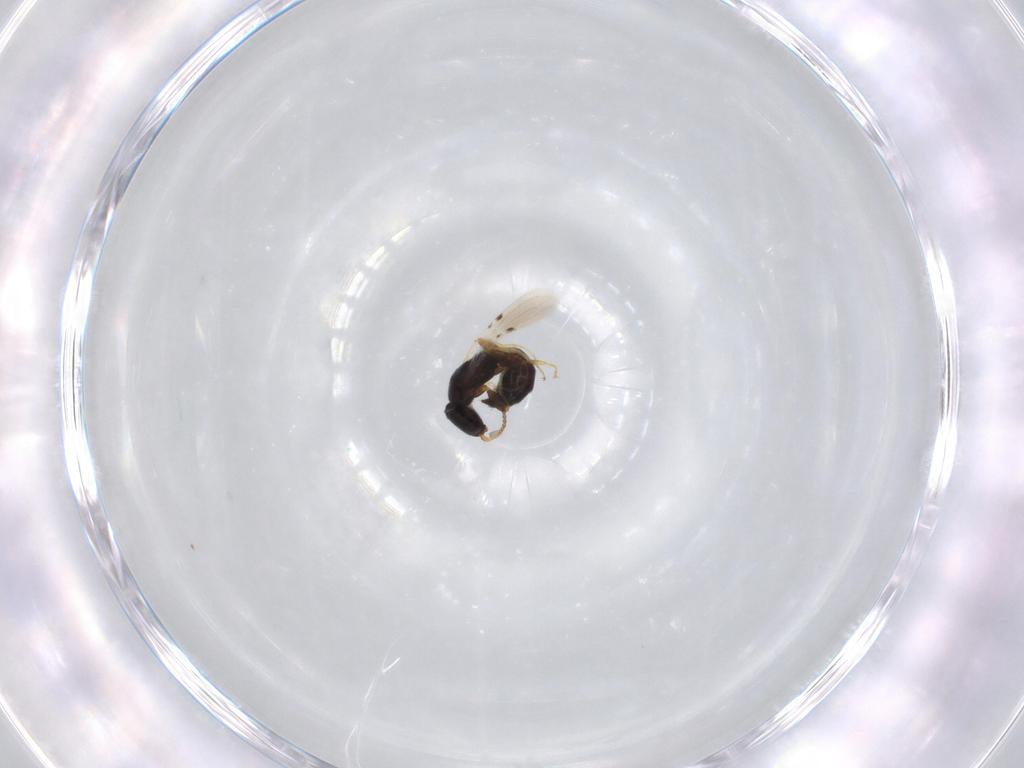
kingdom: Animalia
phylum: Arthropoda
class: Insecta
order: Hymenoptera
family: Bethylidae
